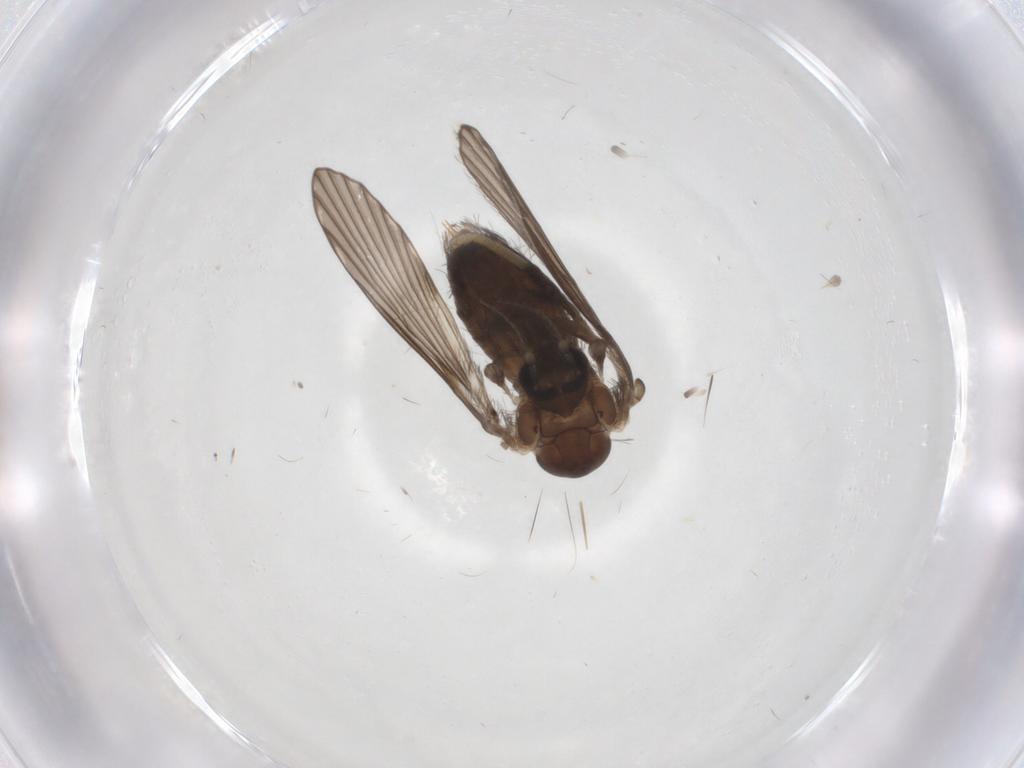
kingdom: Animalia
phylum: Arthropoda
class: Insecta
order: Diptera
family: Psychodidae
